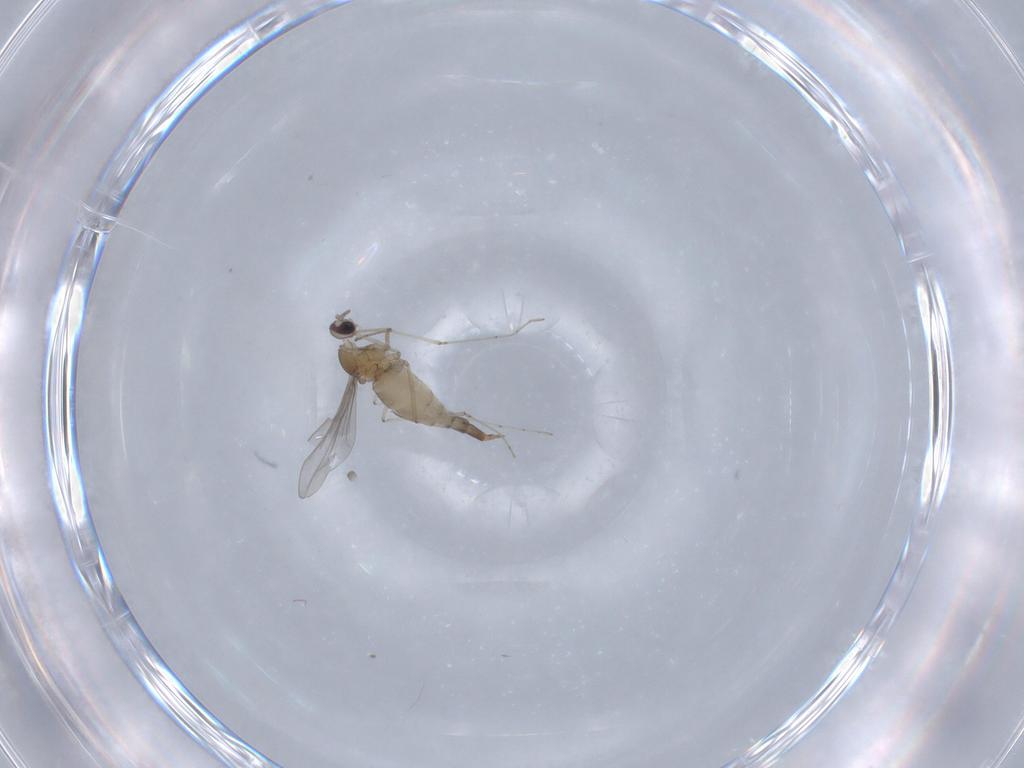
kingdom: Animalia
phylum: Arthropoda
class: Insecta
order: Diptera
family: Cecidomyiidae
